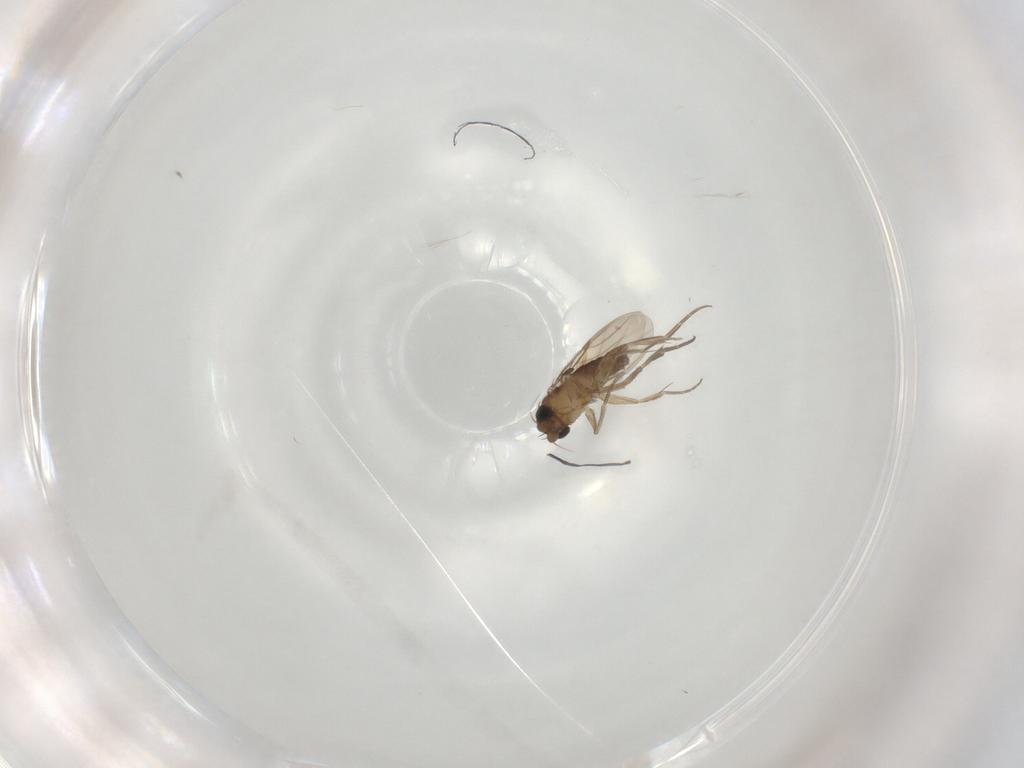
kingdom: Animalia
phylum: Arthropoda
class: Insecta
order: Diptera
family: Phoridae
